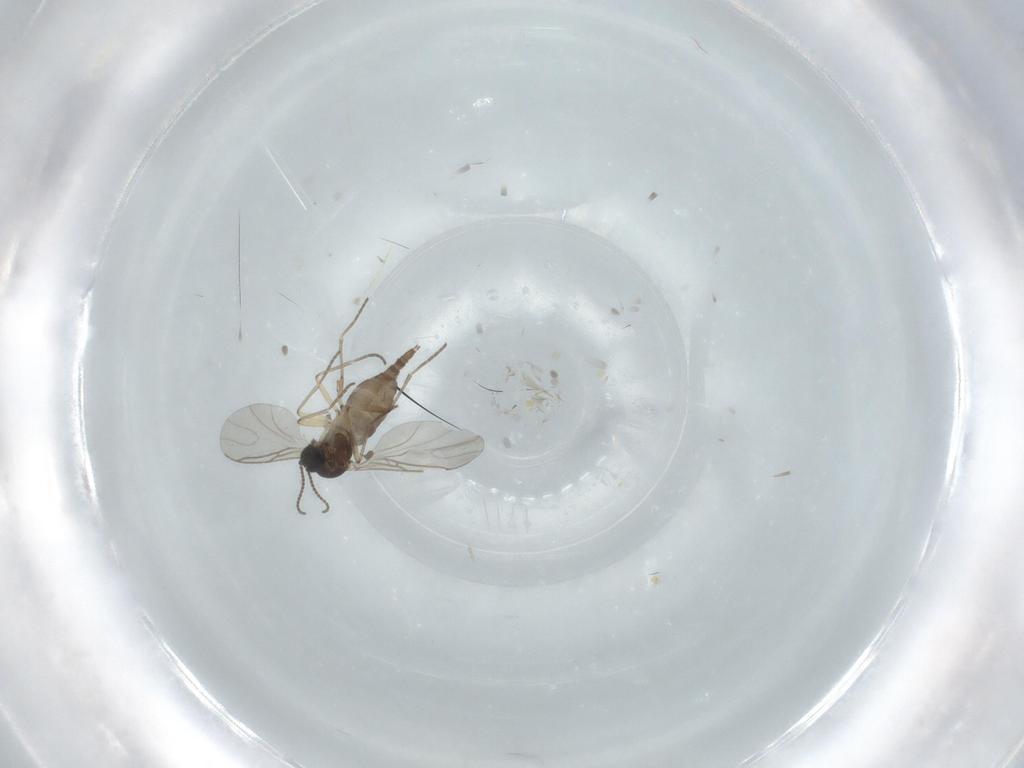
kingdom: Animalia
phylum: Arthropoda
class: Insecta
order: Diptera
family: Sciaridae
